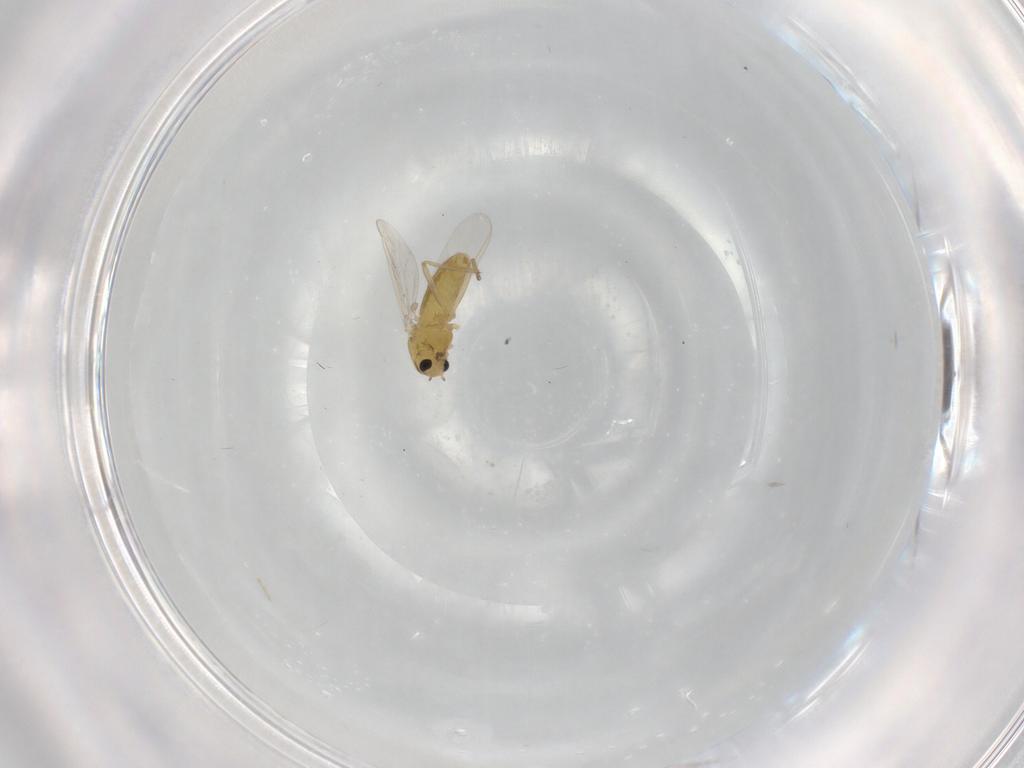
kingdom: Animalia
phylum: Arthropoda
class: Insecta
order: Diptera
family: Chironomidae
